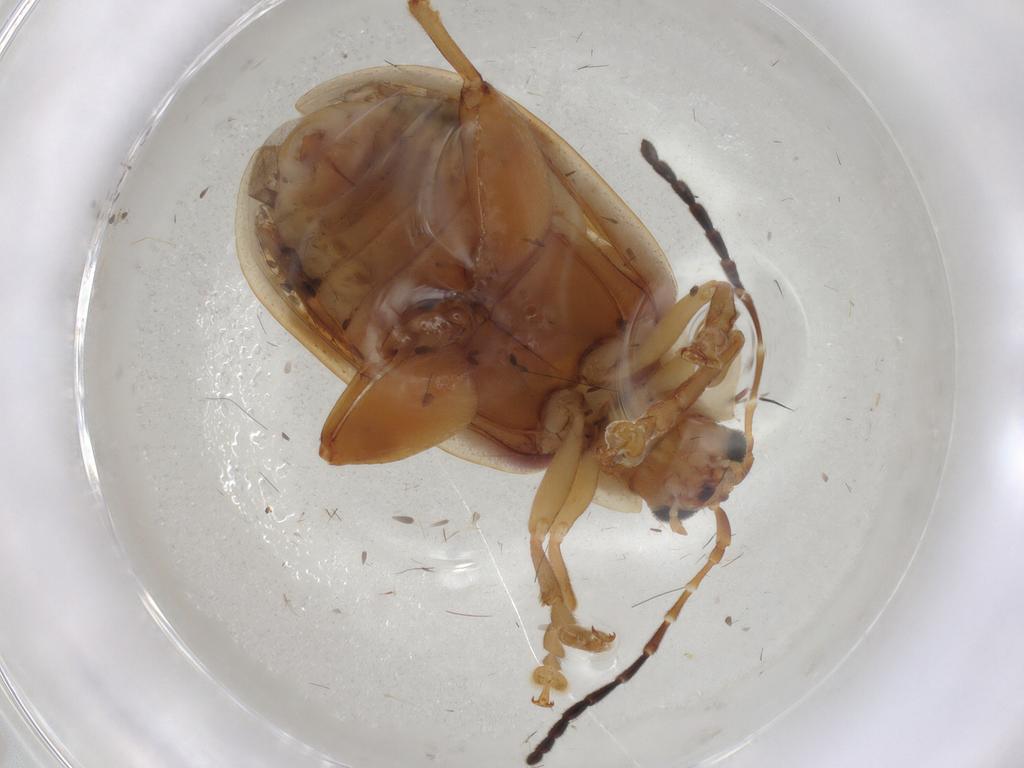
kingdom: Animalia
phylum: Arthropoda
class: Insecta
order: Coleoptera
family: Chrysomelidae
